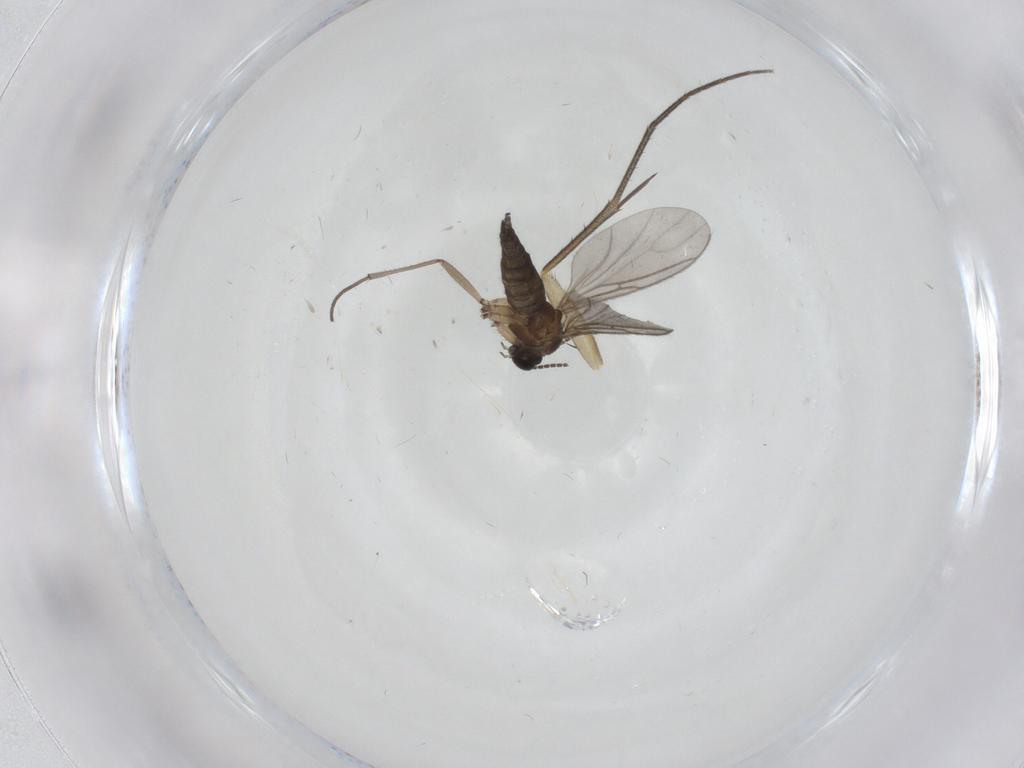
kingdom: Animalia
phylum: Arthropoda
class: Insecta
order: Diptera
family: Sciaridae
